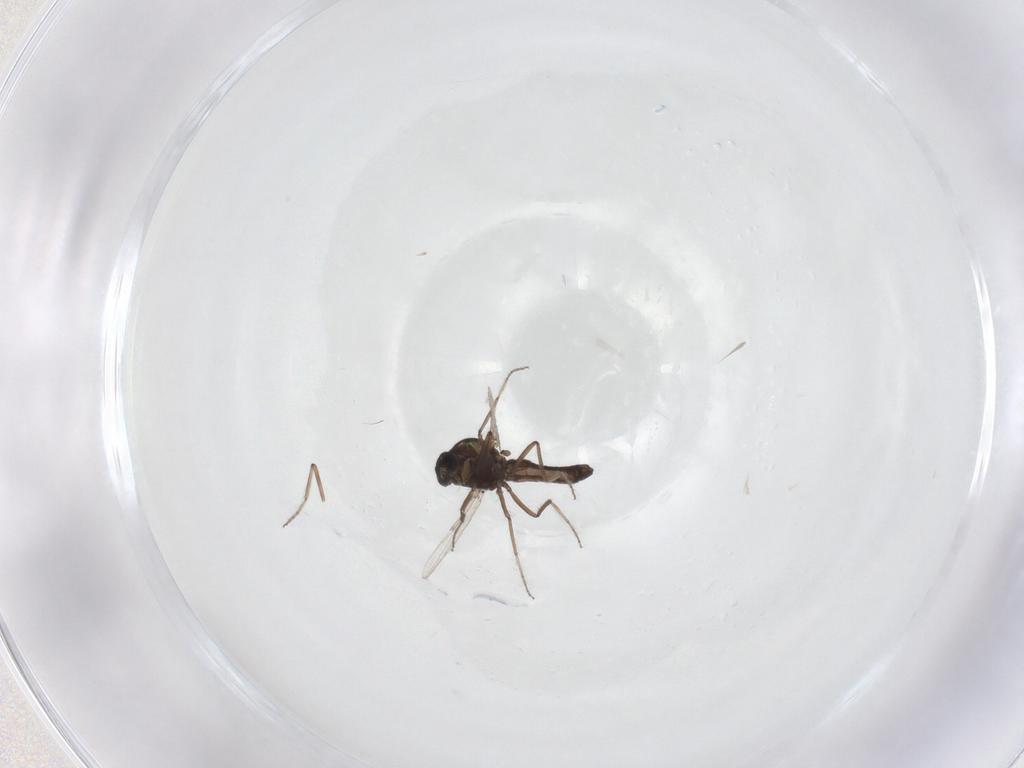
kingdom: Animalia
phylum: Arthropoda
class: Insecta
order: Diptera
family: Ceratopogonidae
